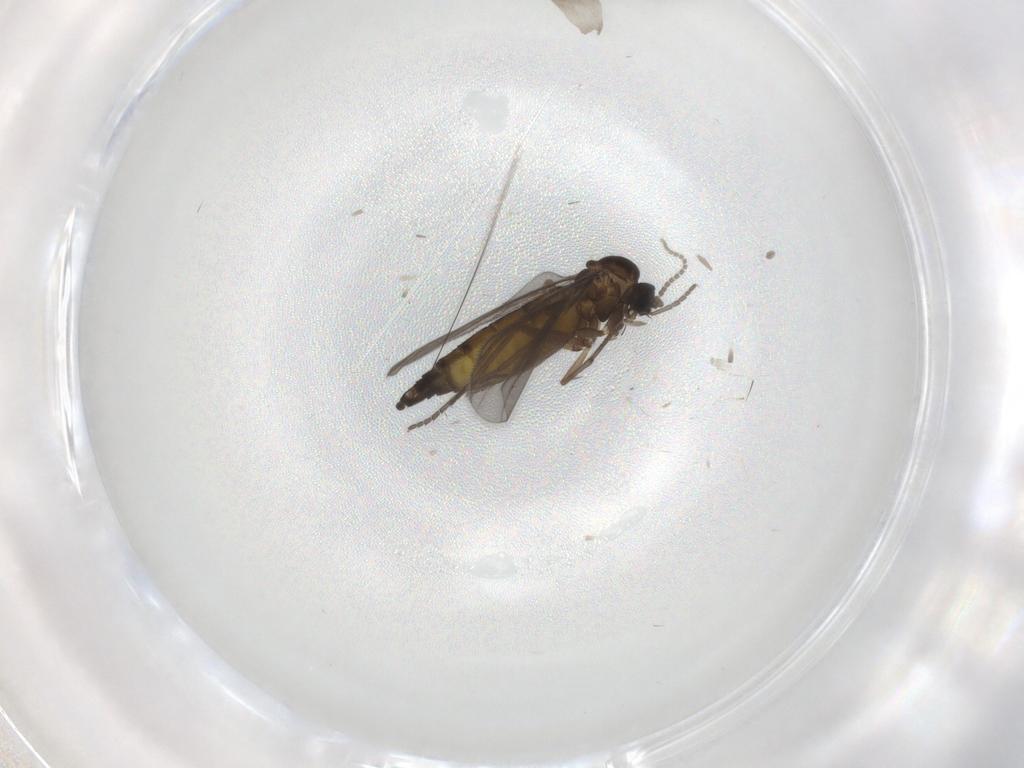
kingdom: Animalia
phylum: Arthropoda
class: Insecta
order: Diptera
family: Sciaridae
